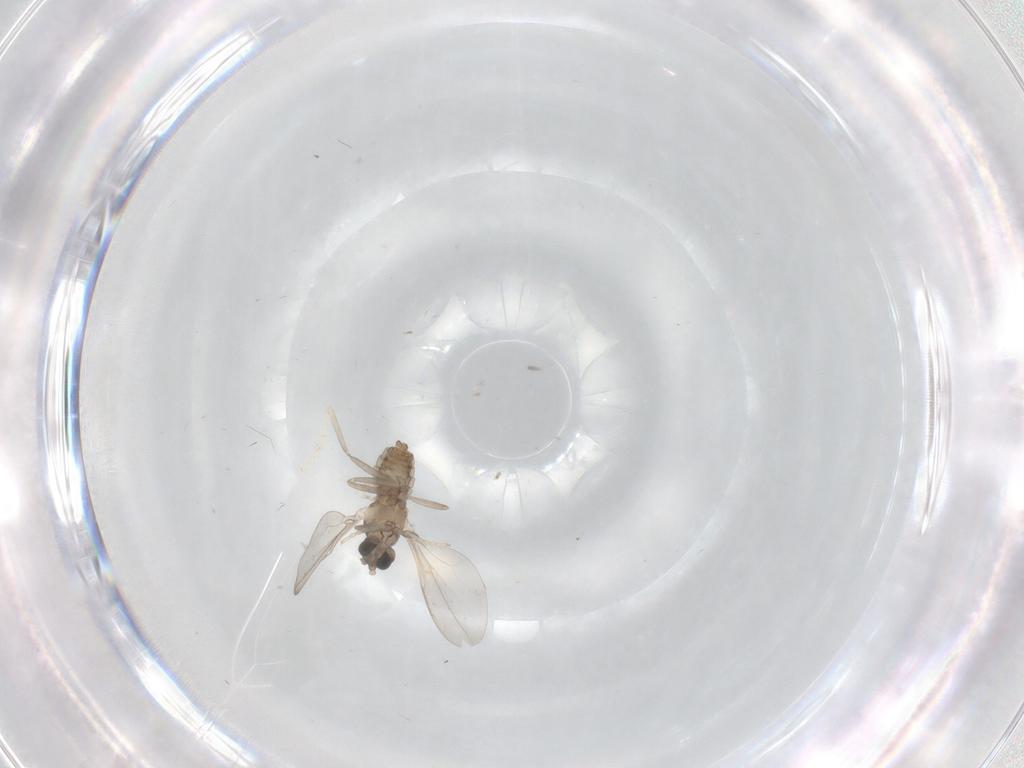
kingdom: Animalia
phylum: Arthropoda
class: Insecta
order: Diptera
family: Cecidomyiidae
